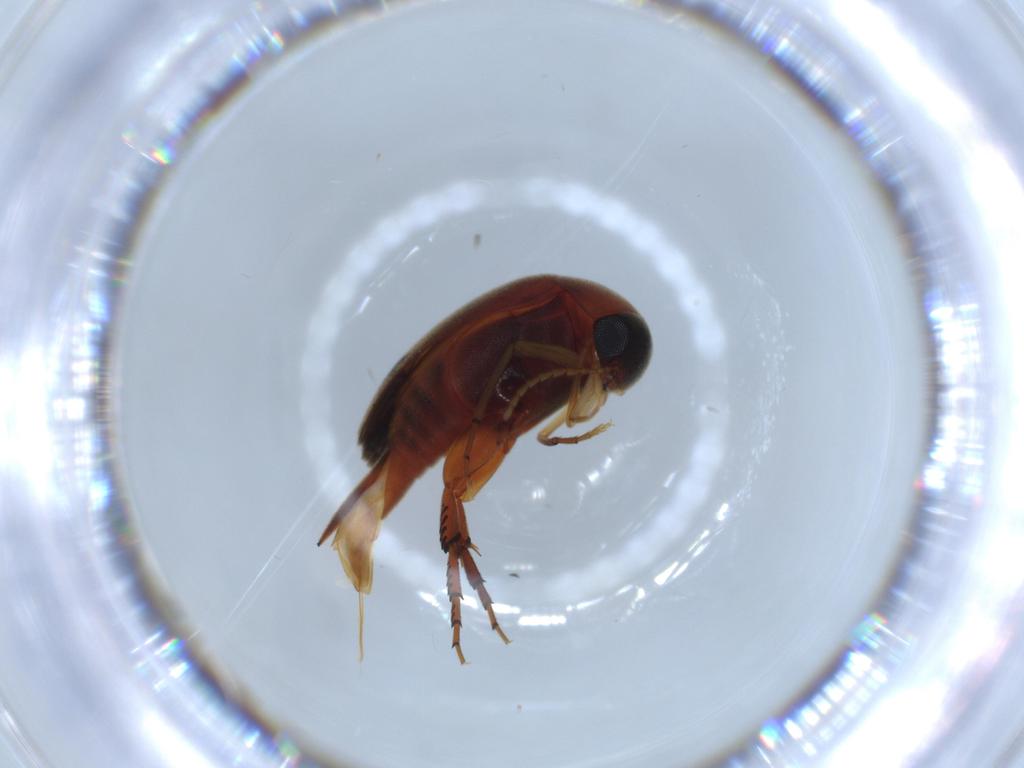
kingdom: Animalia
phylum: Arthropoda
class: Insecta
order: Coleoptera
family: Mordellidae
